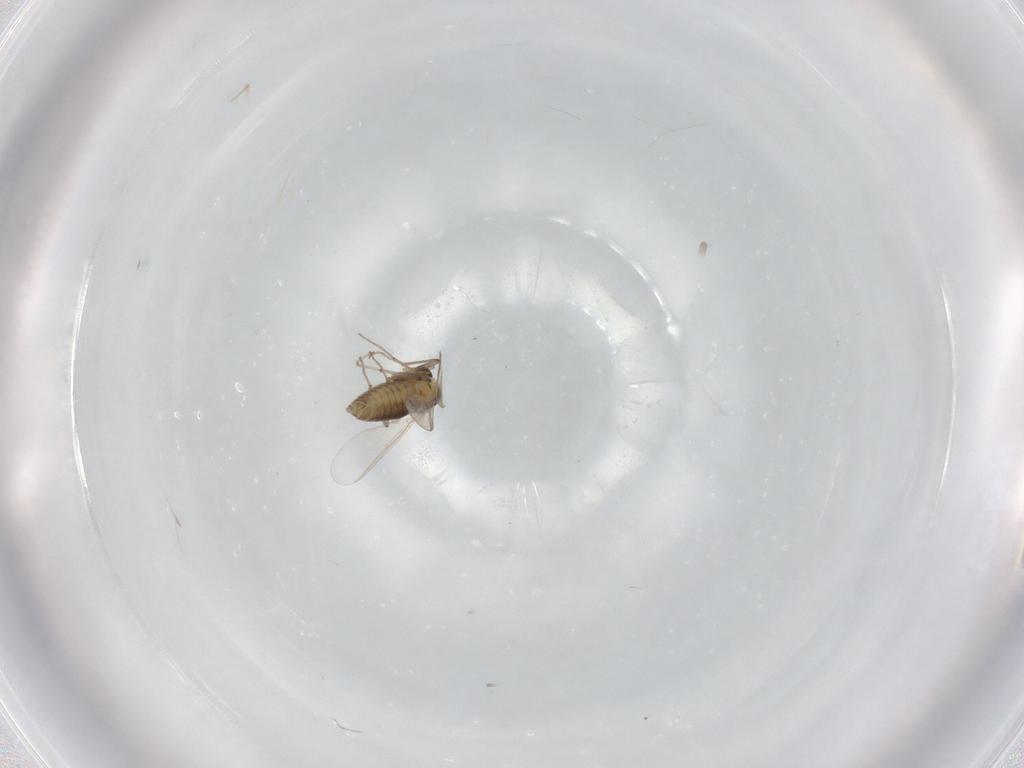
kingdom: Animalia
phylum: Arthropoda
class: Insecta
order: Diptera
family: Chironomidae
